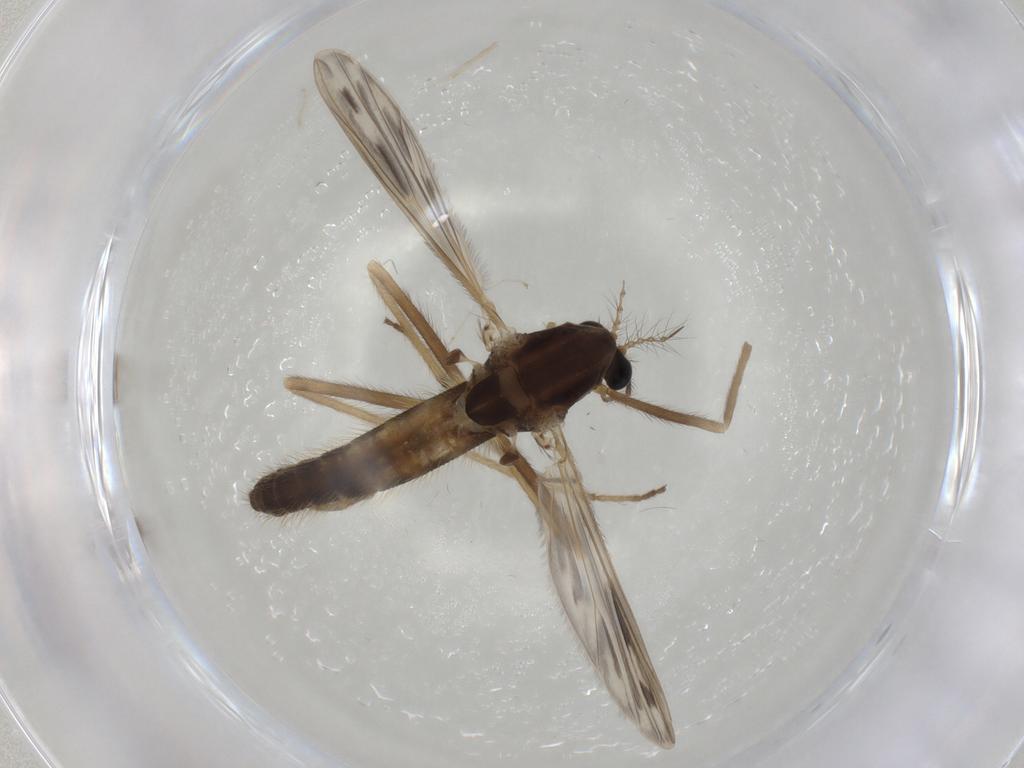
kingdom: Animalia
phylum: Arthropoda
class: Insecta
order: Diptera
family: Chironomidae
